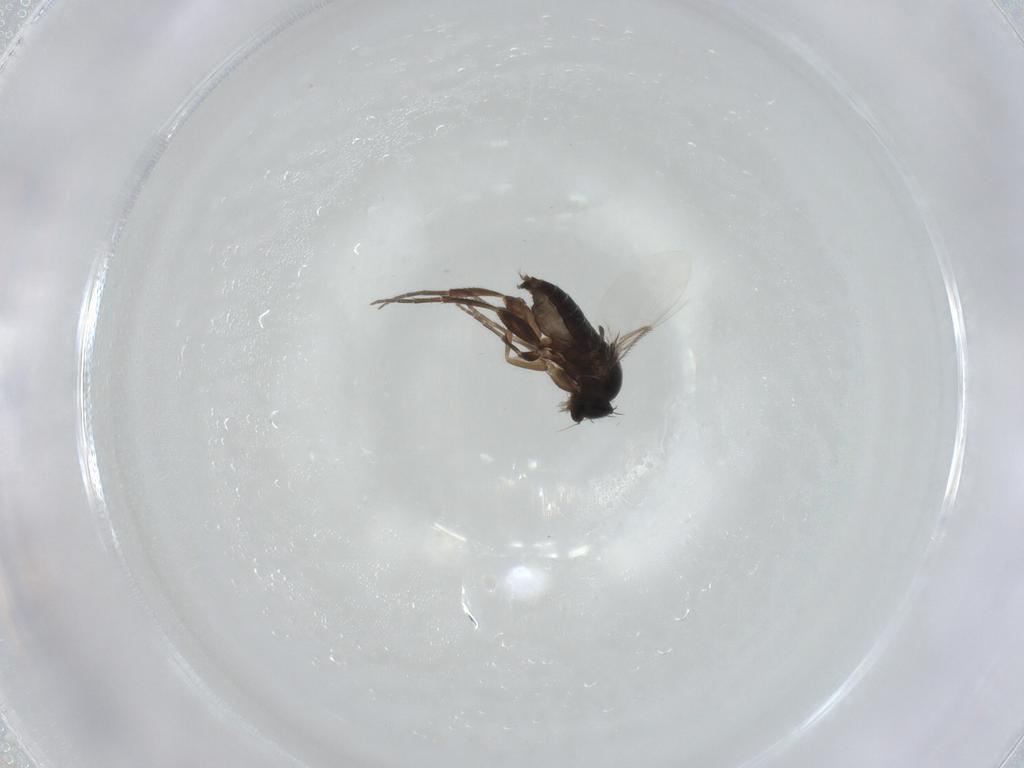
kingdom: Animalia
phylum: Arthropoda
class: Insecta
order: Diptera
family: Phoridae
